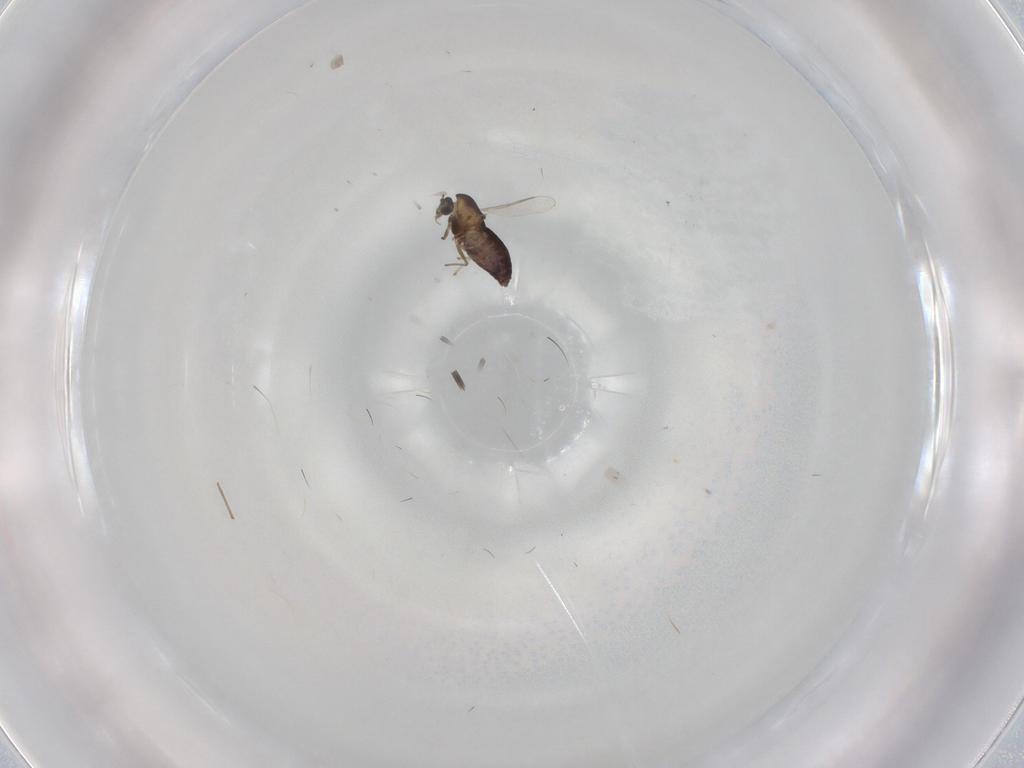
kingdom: Animalia
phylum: Arthropoda
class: Insecta
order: Diptera
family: Chironomidae
